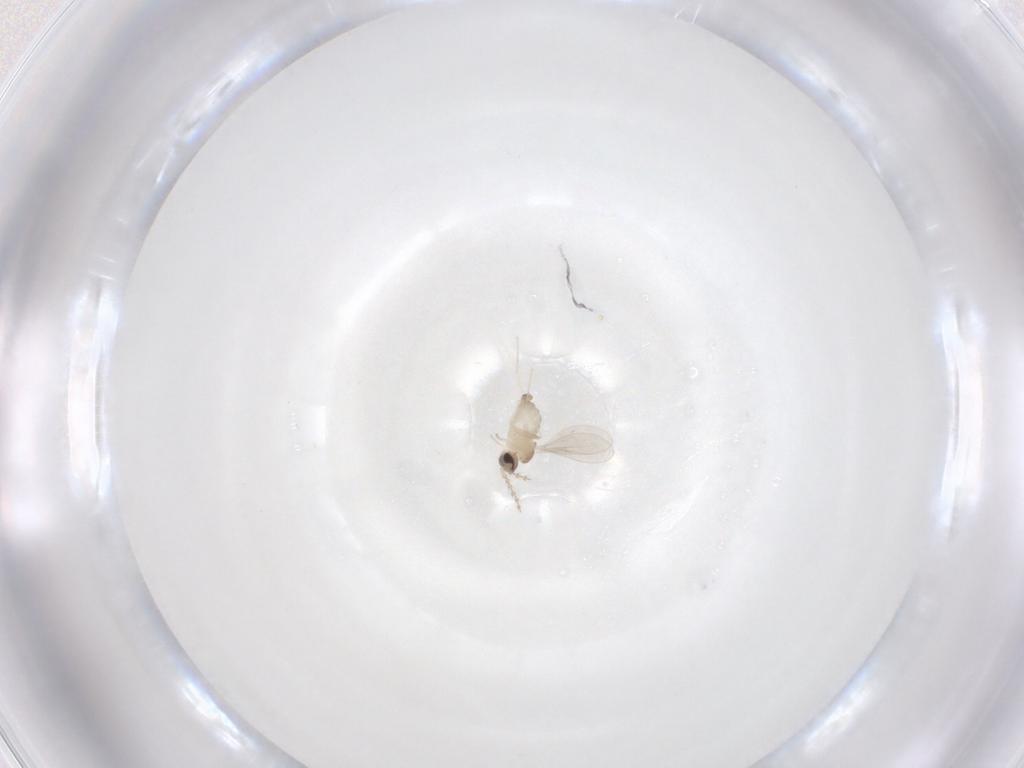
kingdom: Animalia
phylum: Arthropoda
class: Insecta
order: Diptera
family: Cecidomyiidae
